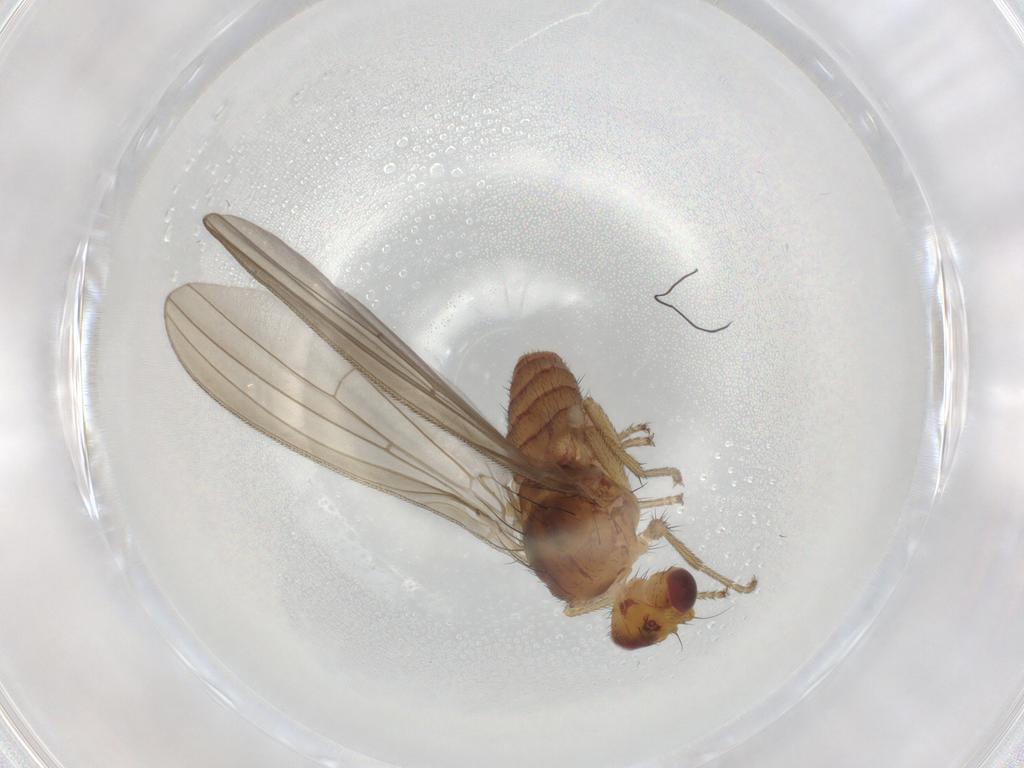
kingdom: Animalia
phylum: Arthropoda
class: Insecta
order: Diptera
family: Natalimyzidae
